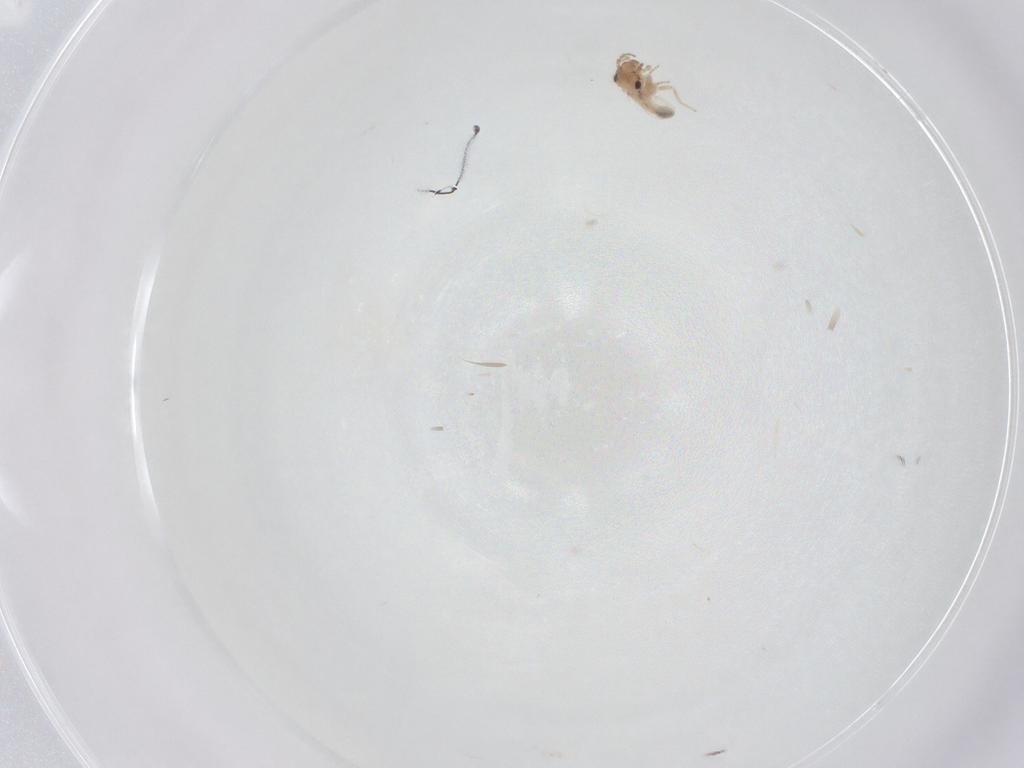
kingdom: Animalia
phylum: Arthropoda
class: Insecta
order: Psocodea
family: Lepidopsocidae
